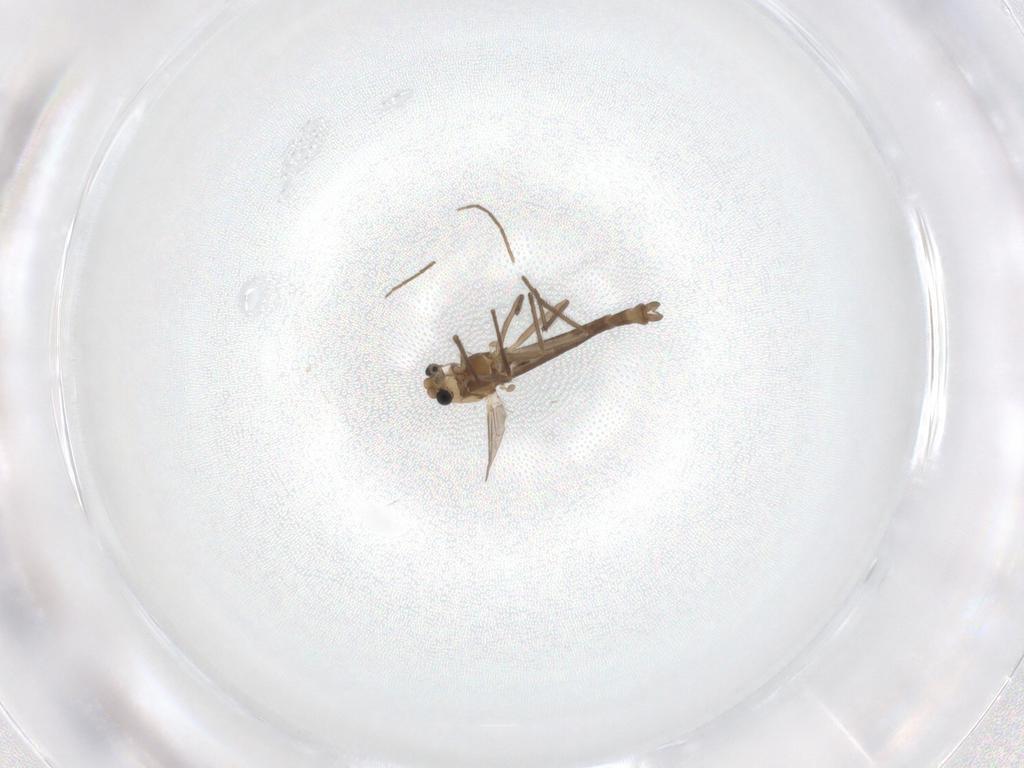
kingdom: Animalia
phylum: Arthropoda
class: Insecta
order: Diptera
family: Chironomidae
